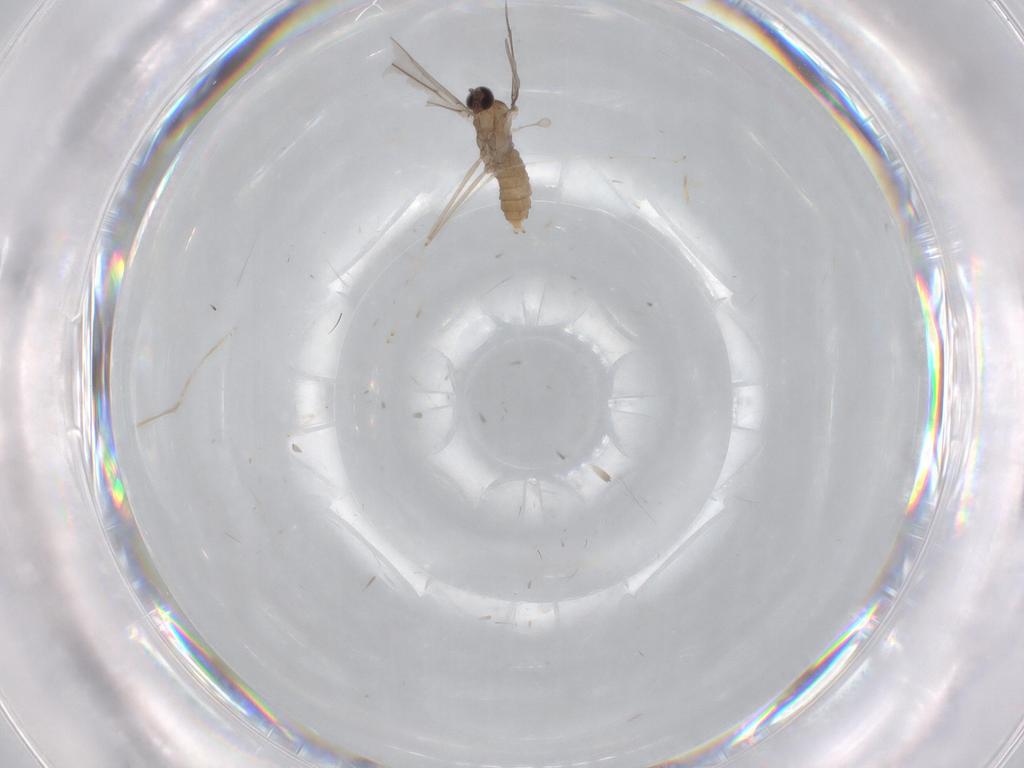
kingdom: Animalia
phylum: Arthropoda
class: Insecta
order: Diptera
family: Cecidomyiidae
